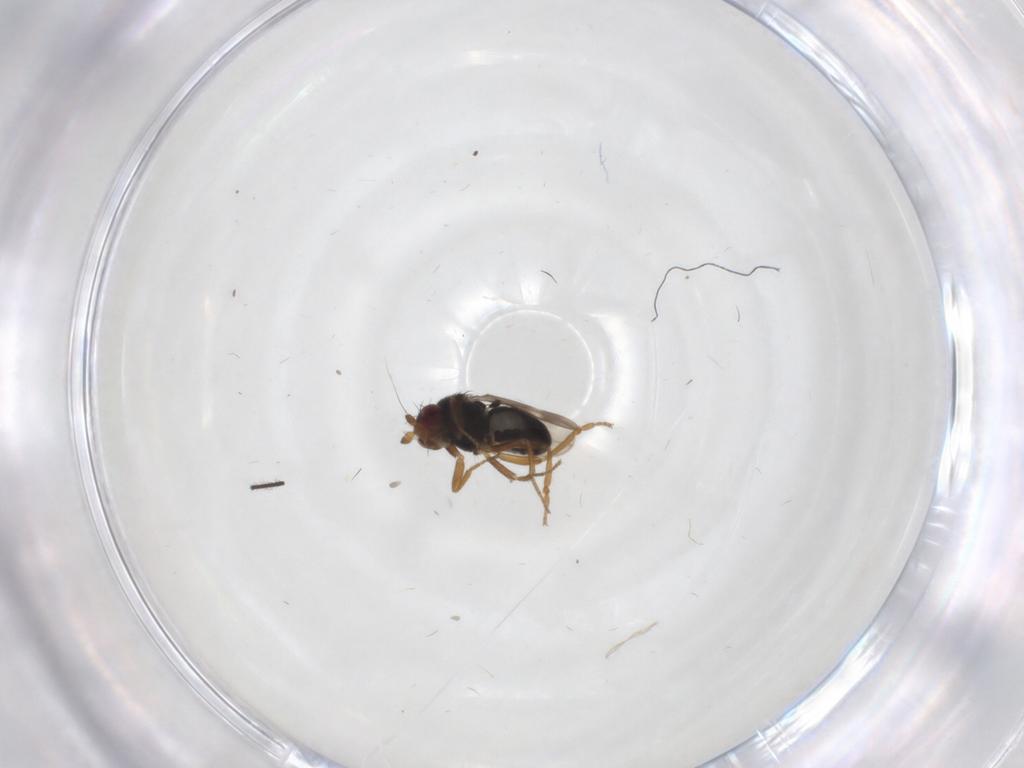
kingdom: Animalia
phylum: Arthropoda
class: Insecta
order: Diptera
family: Sphaeroceridae
